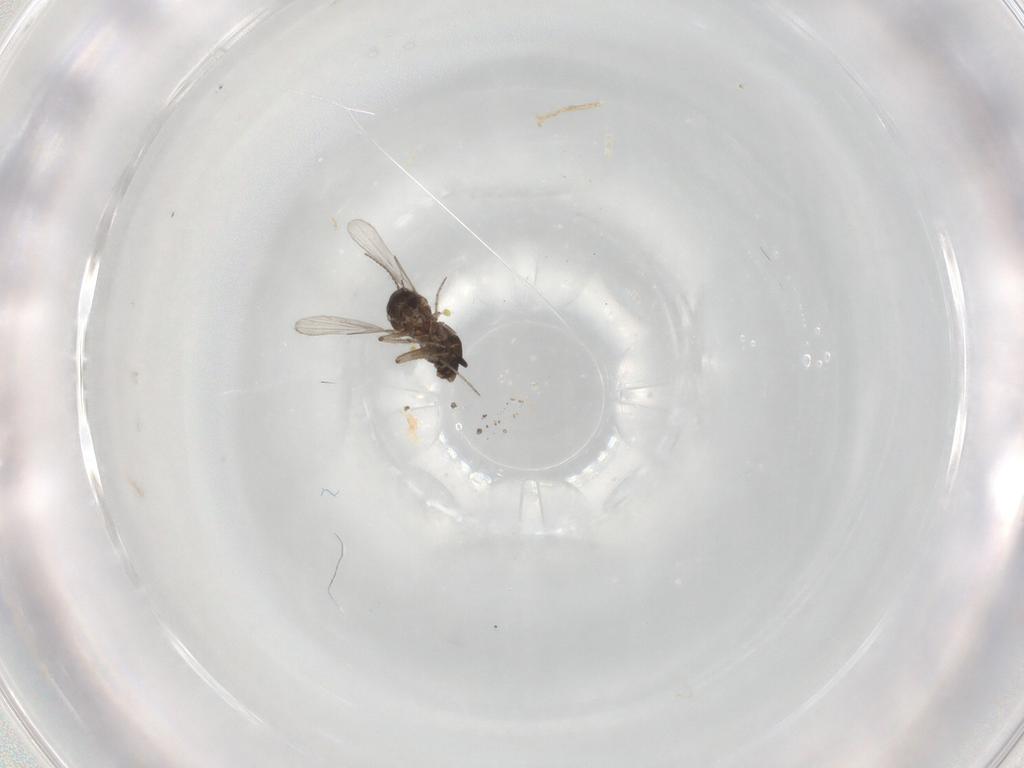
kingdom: Animalia
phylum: Arthropoda
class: Insecta
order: Diptera
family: Ceratopogonidae
